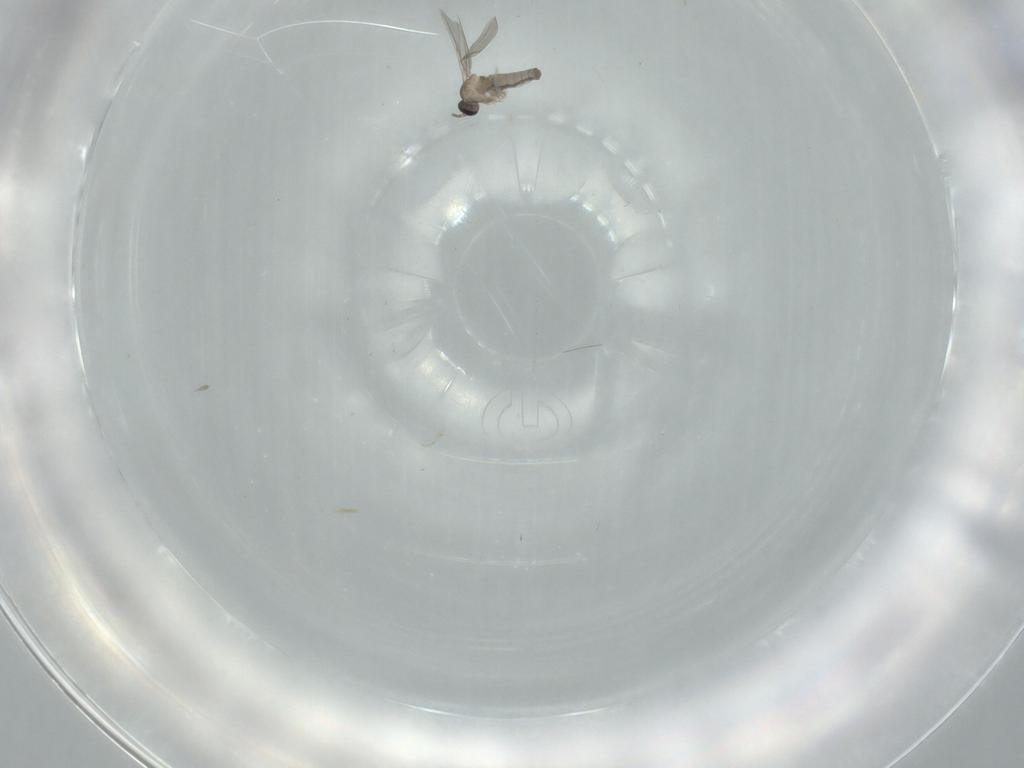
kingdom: Animalia
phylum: Arthropoda
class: Insecta
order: Diptera
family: Cecidomyiidae
